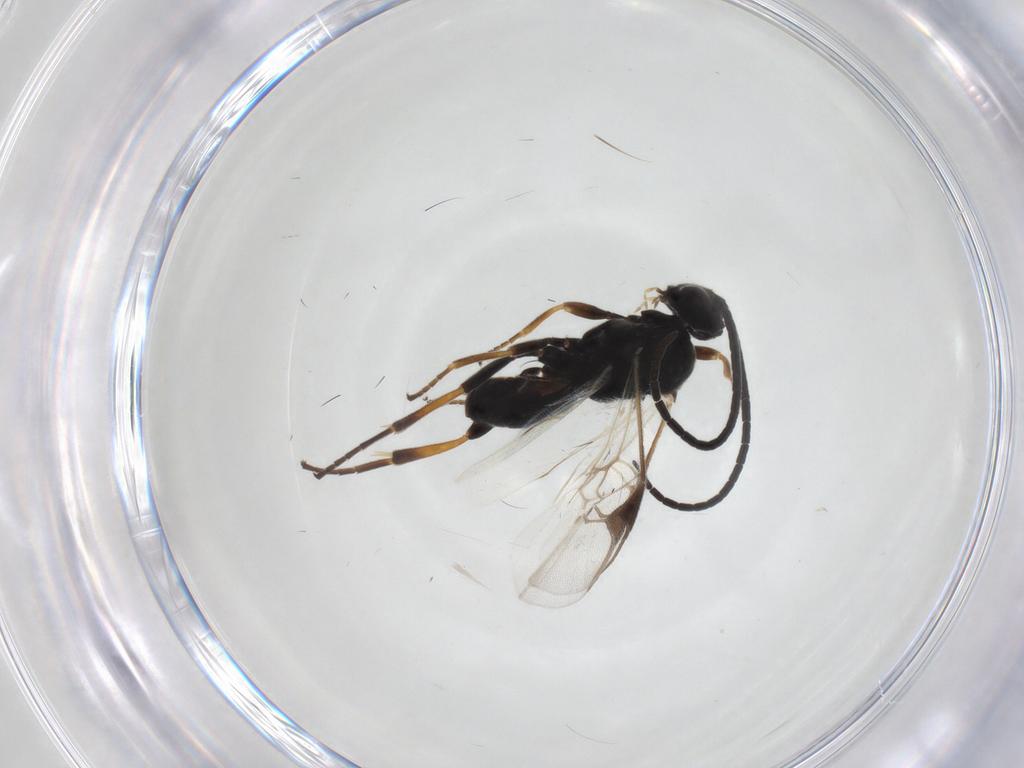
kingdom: Animalia
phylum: Arthropoda
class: Insecta
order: Hymenoptera
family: Braconidae
